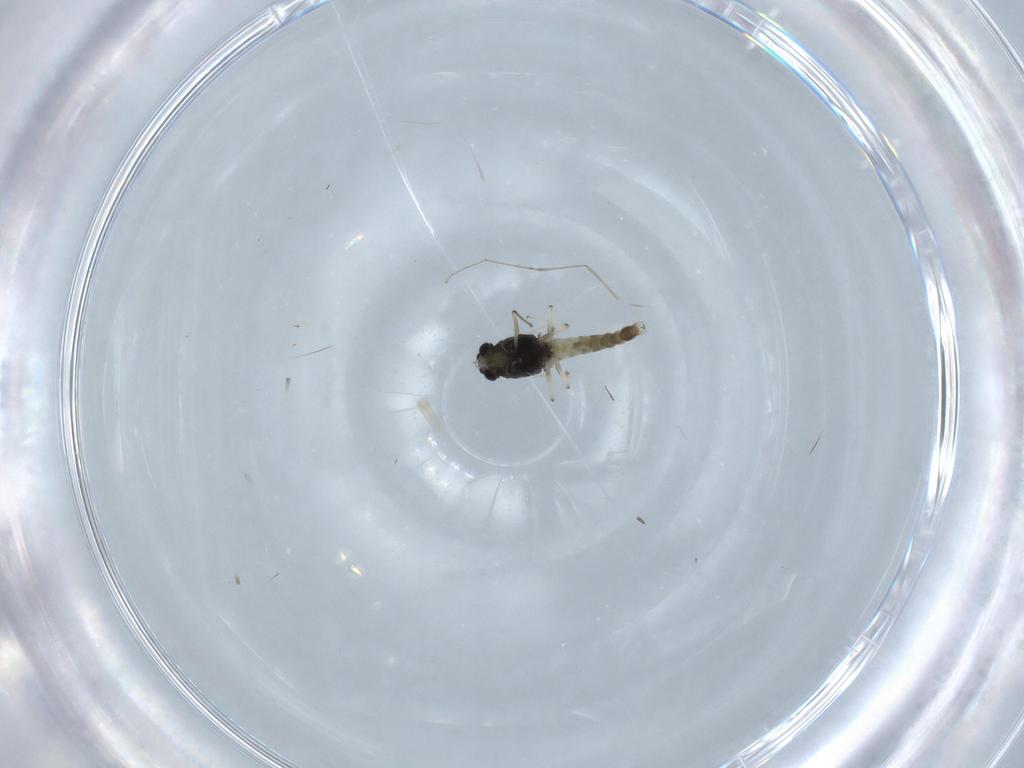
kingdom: Animalia
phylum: Arthropoda
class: Insecta
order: Diptera
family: Chironomidae
